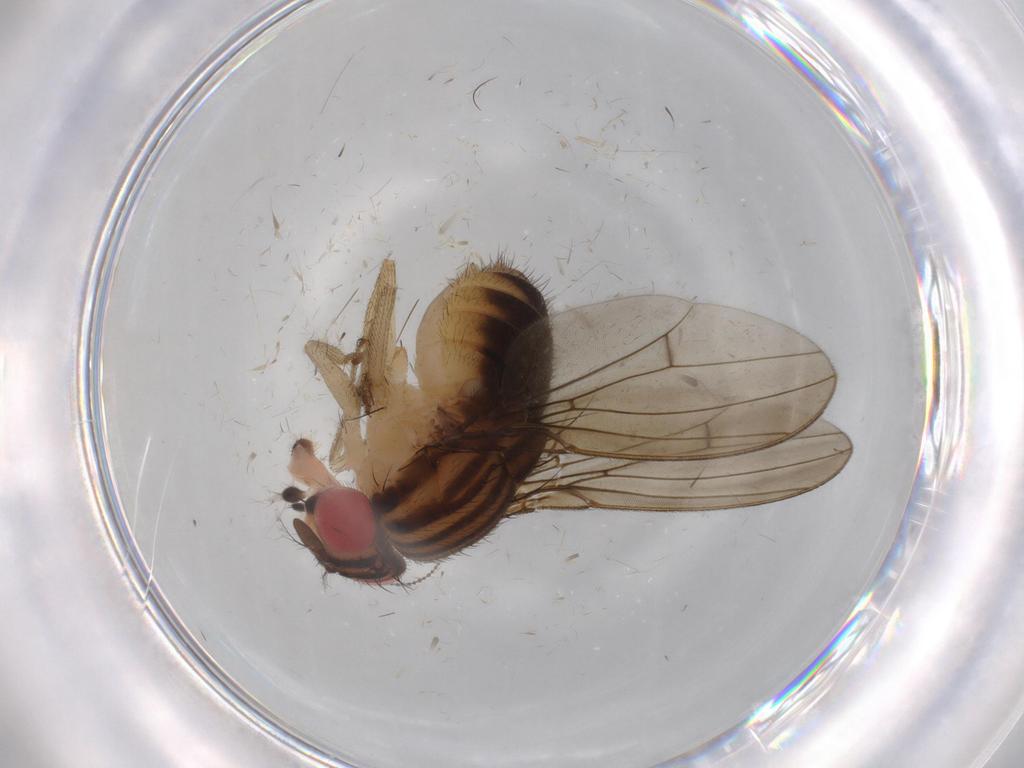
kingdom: Animalia
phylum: Arthropoda
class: Insecta
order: Diptera
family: Drosophilidae
